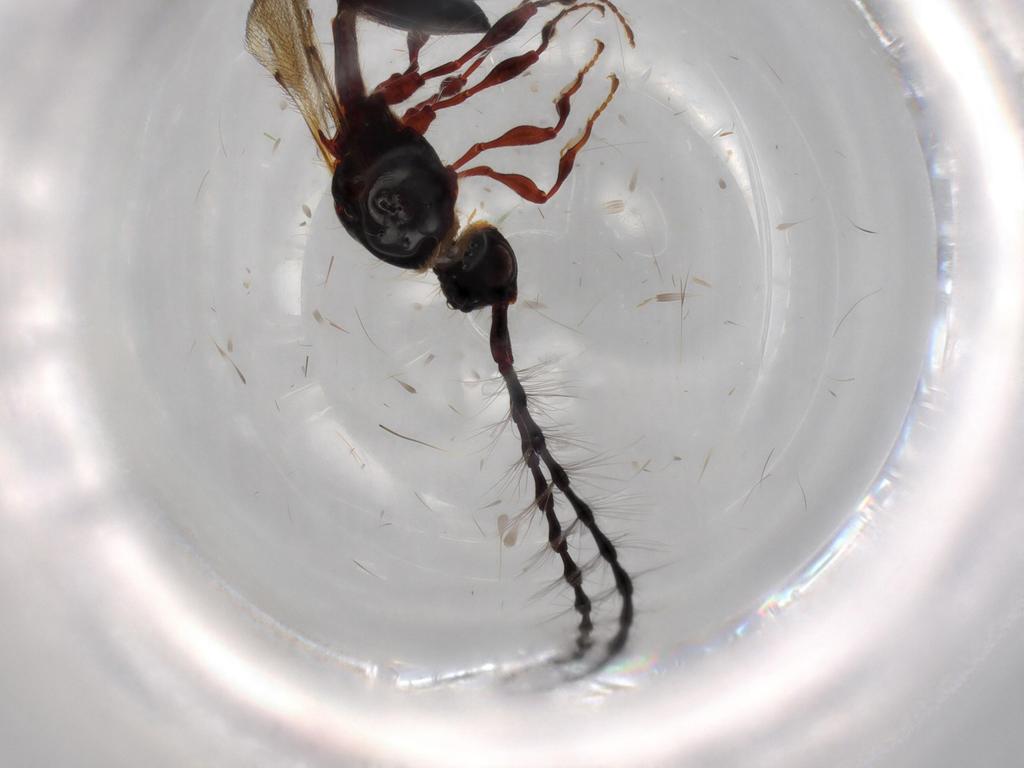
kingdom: Animalia
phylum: Arthropoda
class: Insecta
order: Hymenoptera
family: Diapriidae
